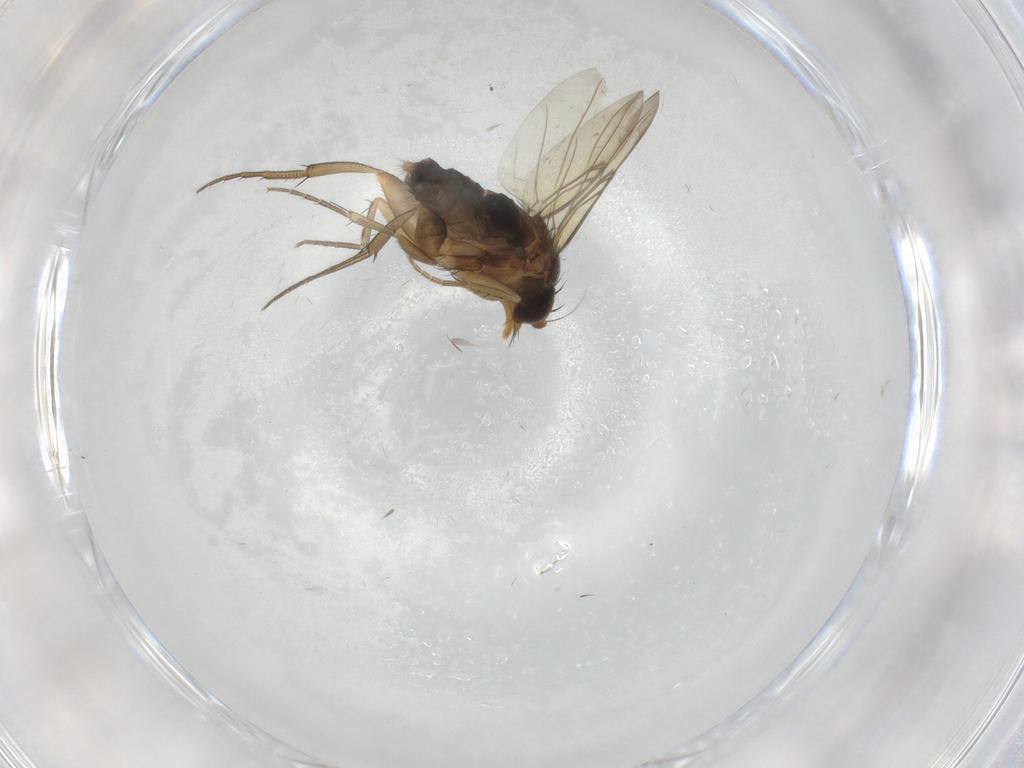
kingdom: Animalia
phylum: Arthropoda
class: Insecta
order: Diptera
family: Phoridae
